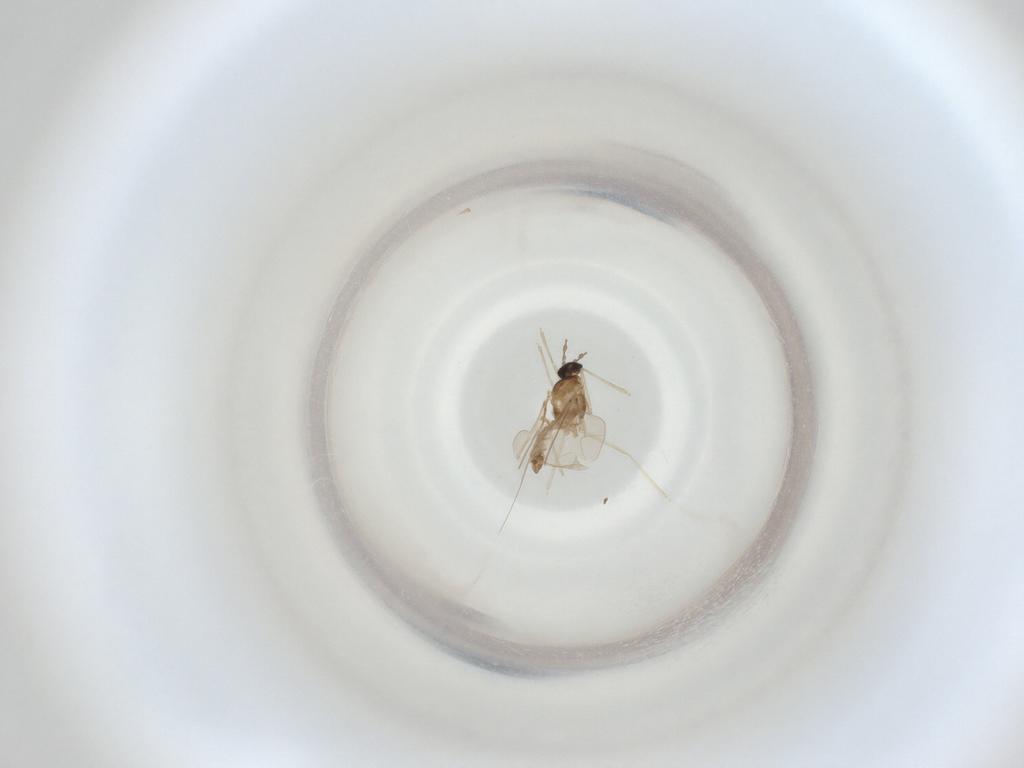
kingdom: Animalia
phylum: Arthropoda
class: Insecta
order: Diptera
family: Cecidomyiidae
